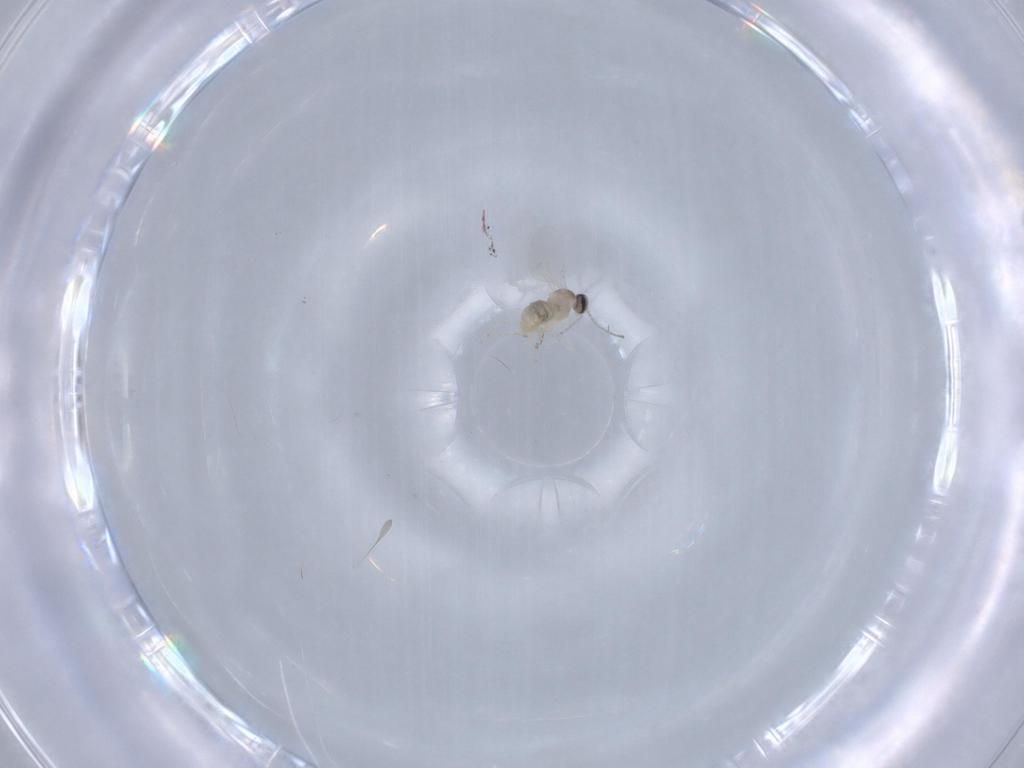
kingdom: Animalia
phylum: Arthropoda
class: Insecta
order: Diptera
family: Cecidomyiidae
